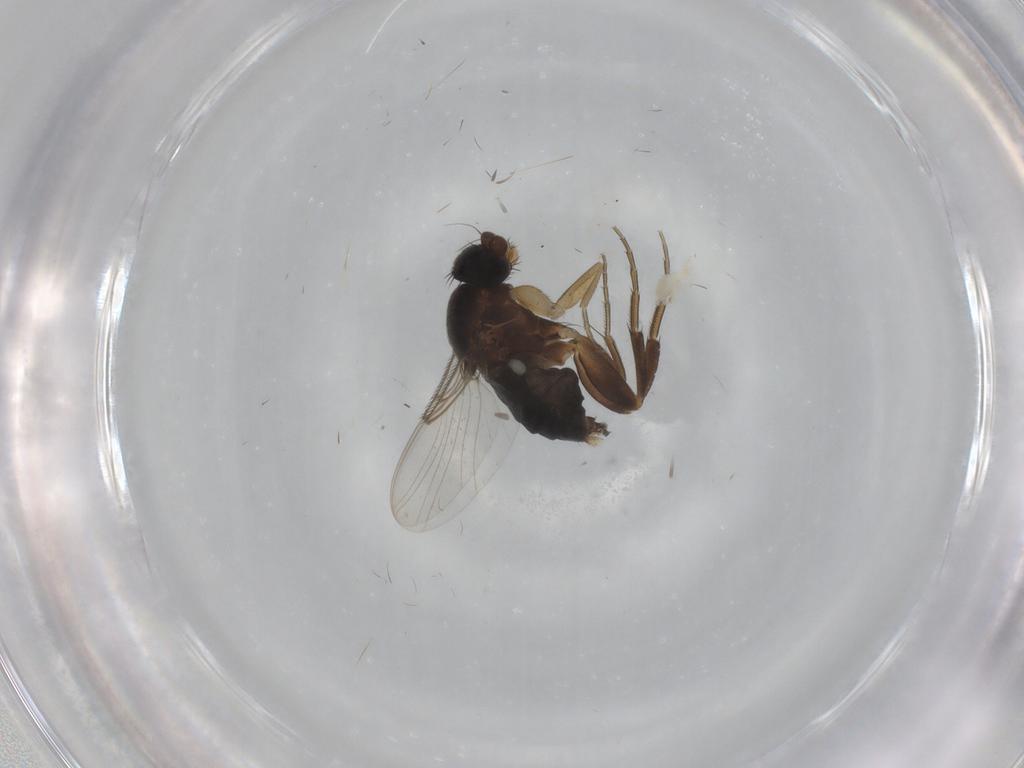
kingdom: Animalia
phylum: Arthropoda
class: Insecta
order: Diptera
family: Phoridae
